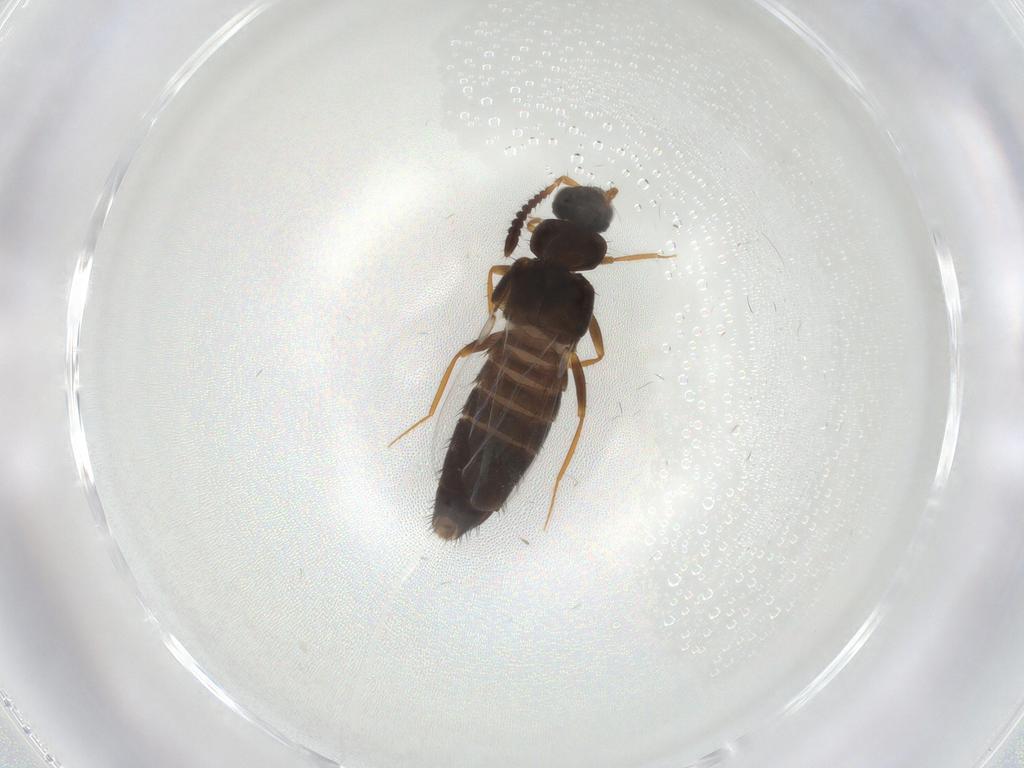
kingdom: Animalia
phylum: Arthropoda
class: Insecta
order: Coleoptera
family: Staphylinidae
